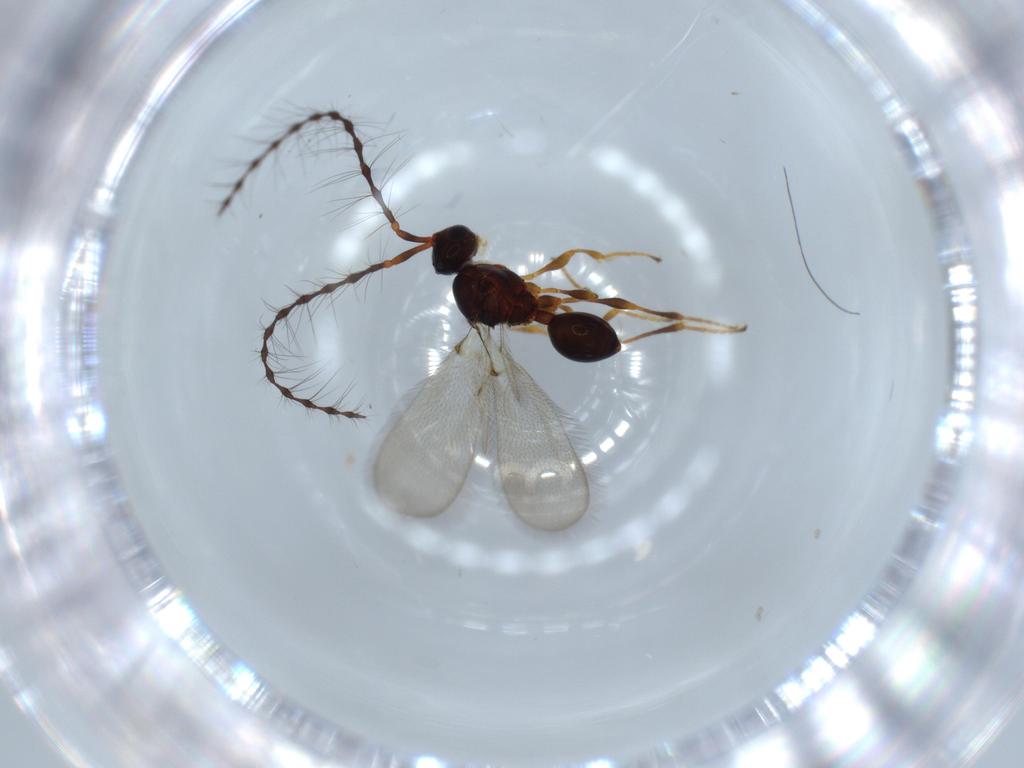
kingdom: Animalia
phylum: Arthropoda
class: Insecta
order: Hymenoptera
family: Diapriidae
